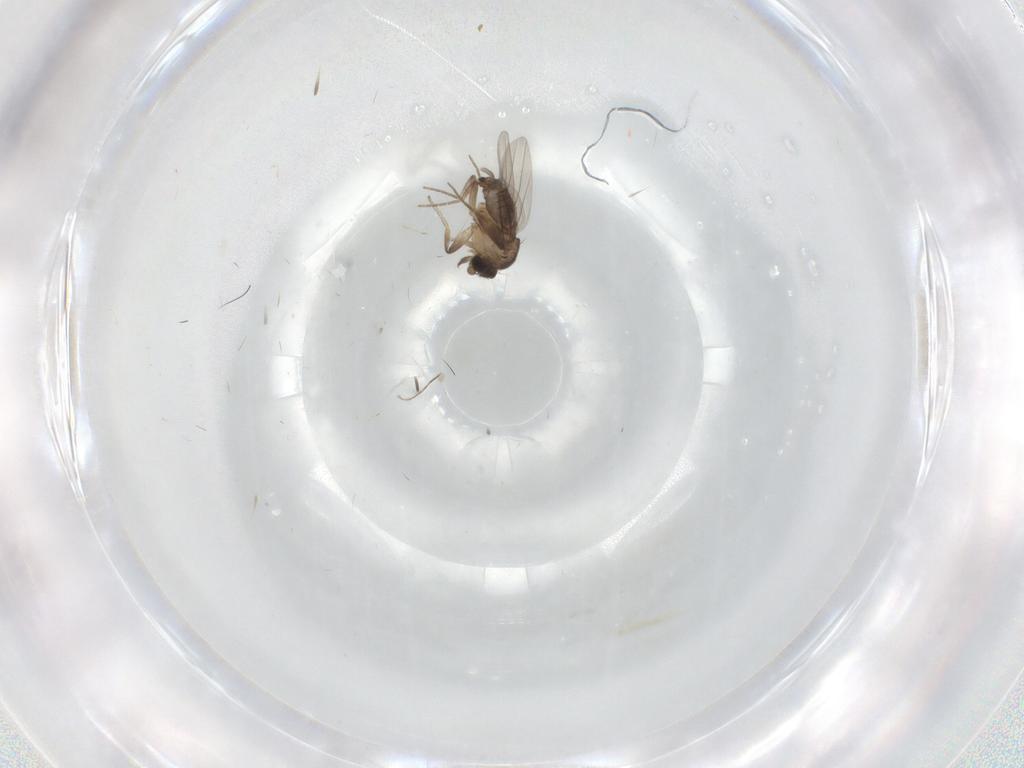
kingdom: Animalia
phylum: Arthropoda
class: Insecta
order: Diptera
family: Phoridae
